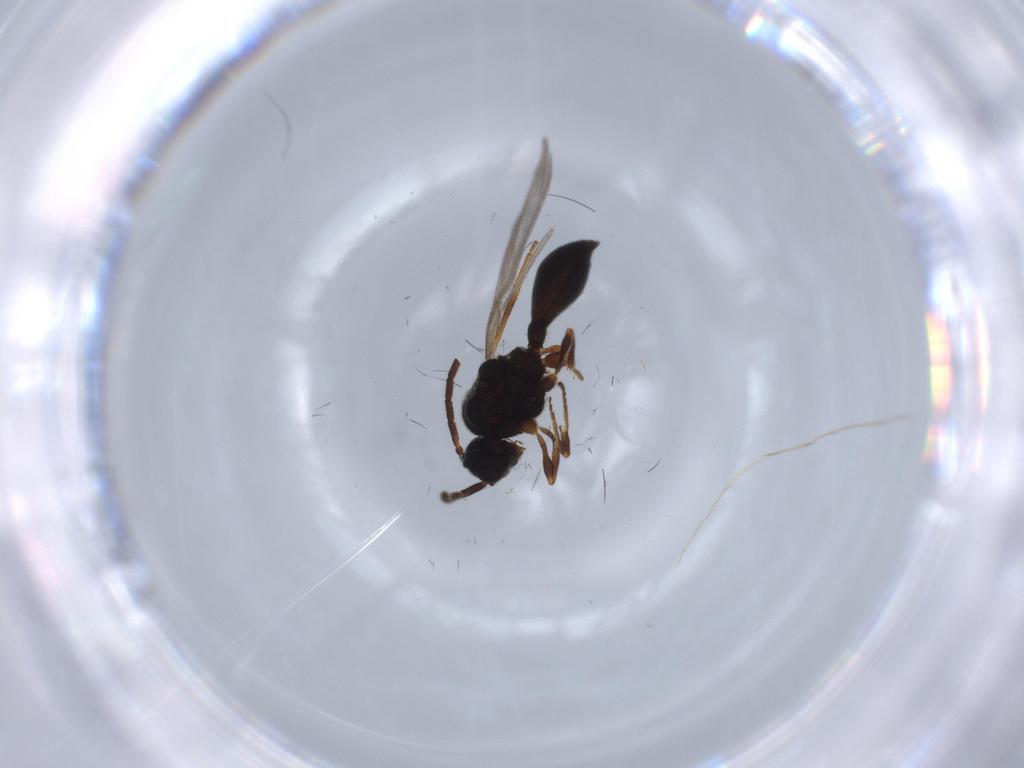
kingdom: Animalia
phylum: Arthropoda
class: Insecta
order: Hymenoptera
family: Diapriidae
